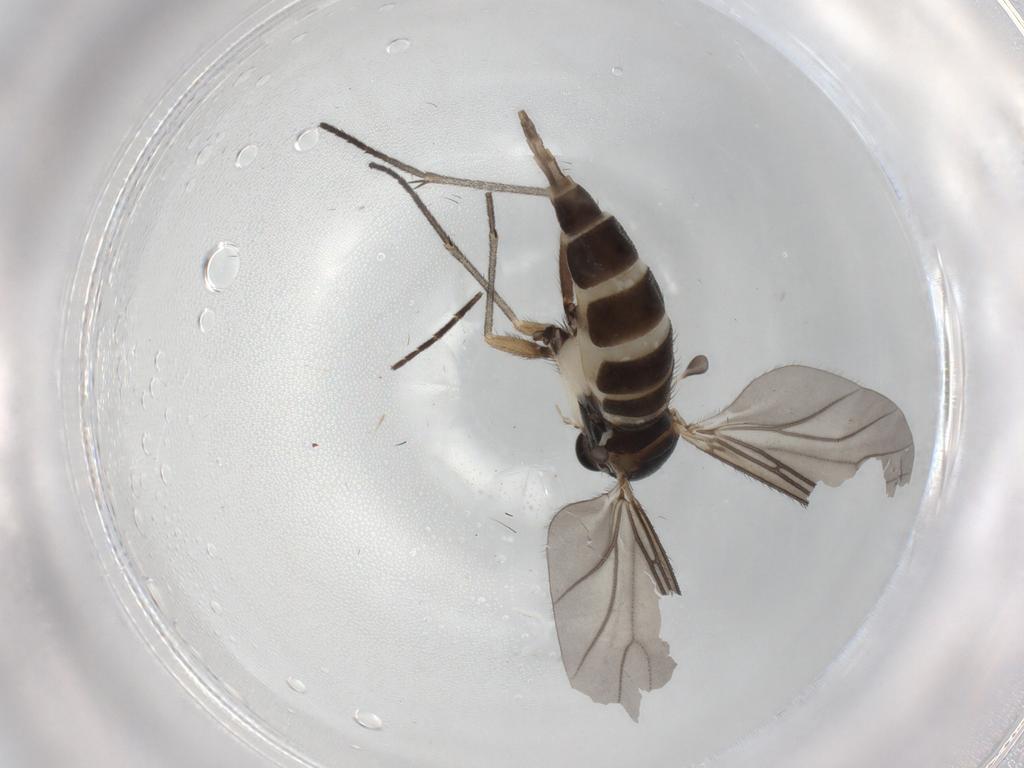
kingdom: Animalia
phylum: Arthropoda
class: Insecta
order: Diptera
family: Sciaridae
